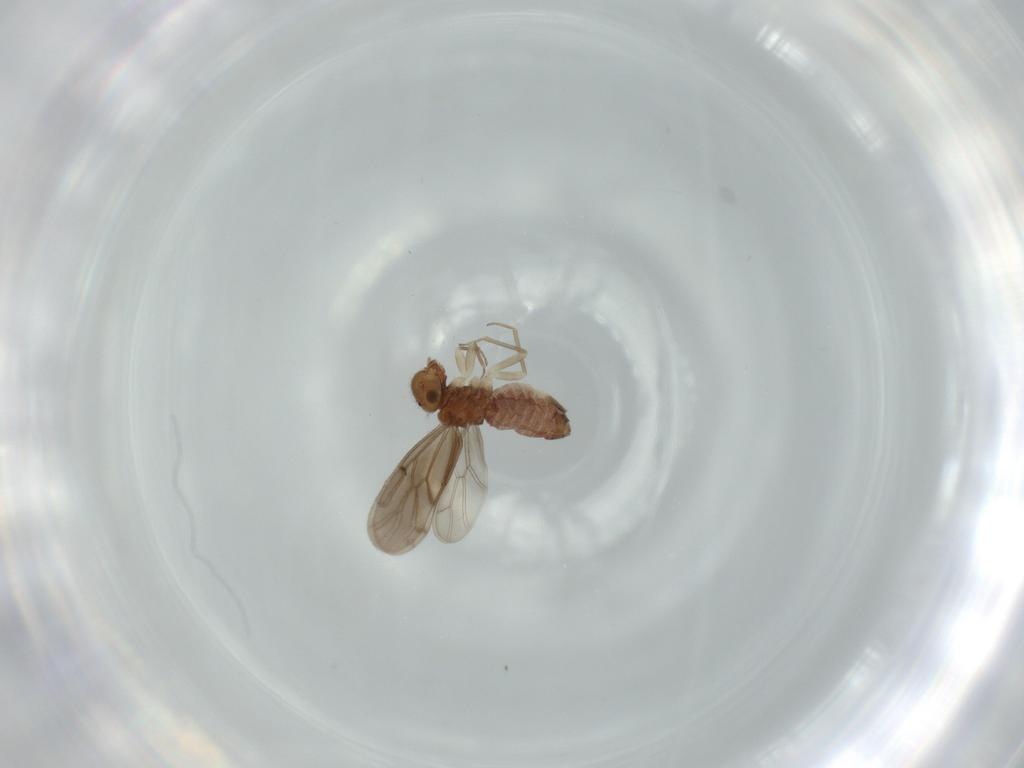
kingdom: Animalia
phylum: Arthropoda
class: Insecta
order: Psocodea
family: Ectopsocidae
